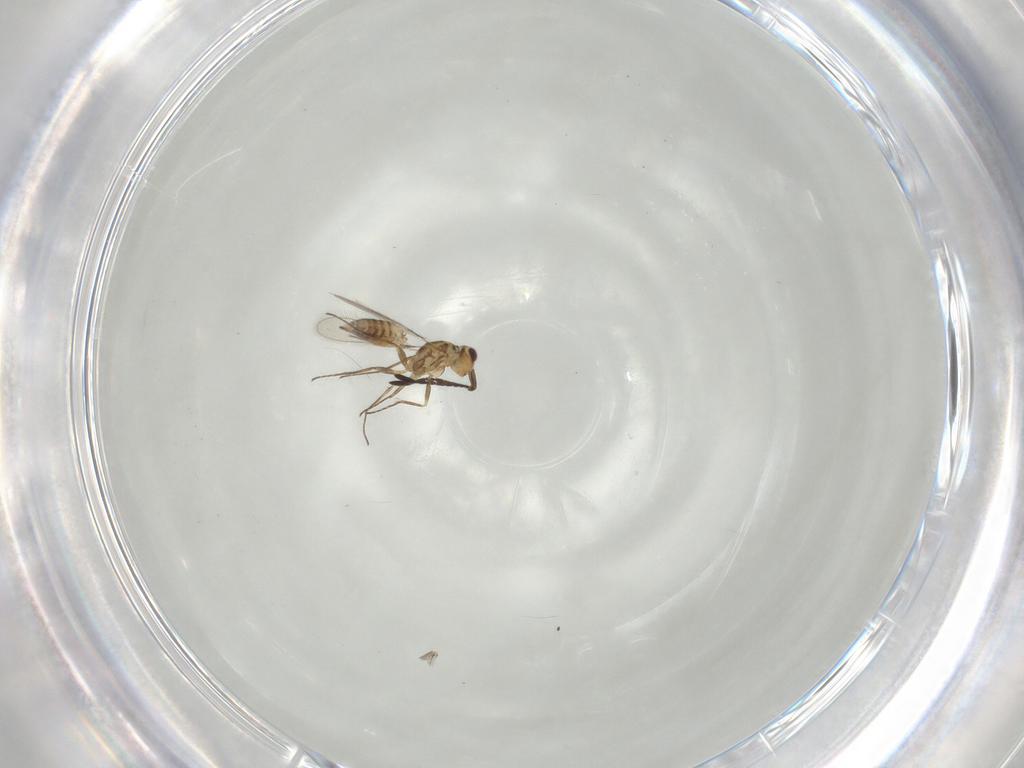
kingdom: Animalia
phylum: Arthropoda
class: Insecta
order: Hymenoptera
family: Mymaridae
